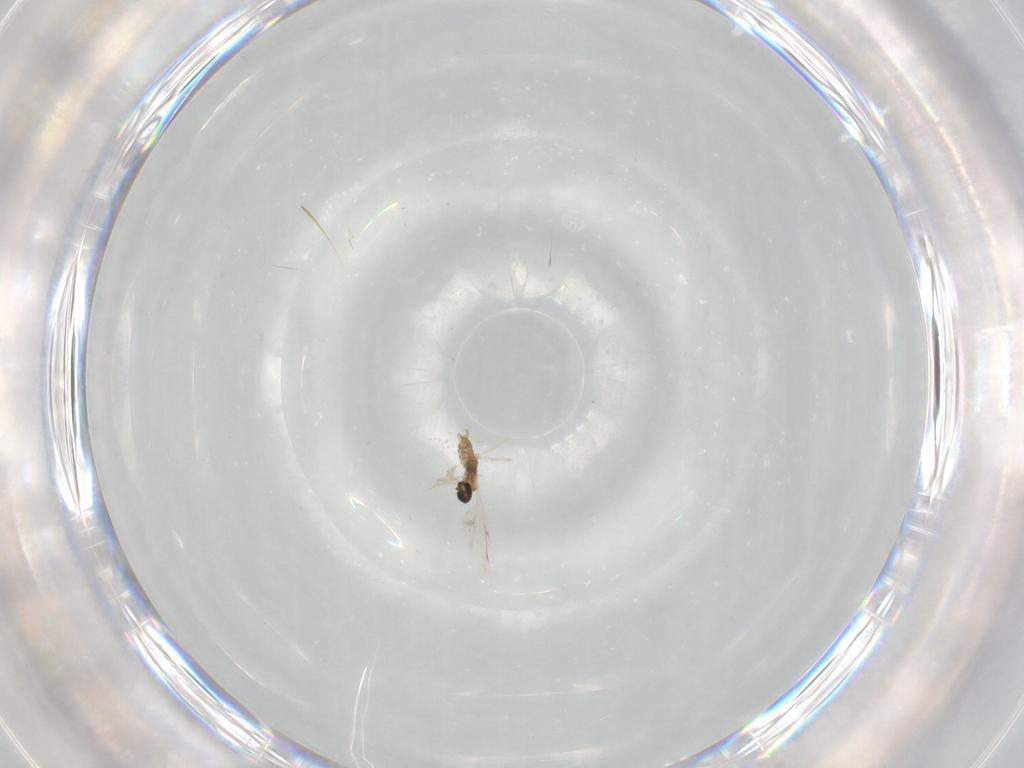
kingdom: Animalia
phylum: Arthropoda
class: Insecta
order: Diptera
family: Cecidomyiidae
